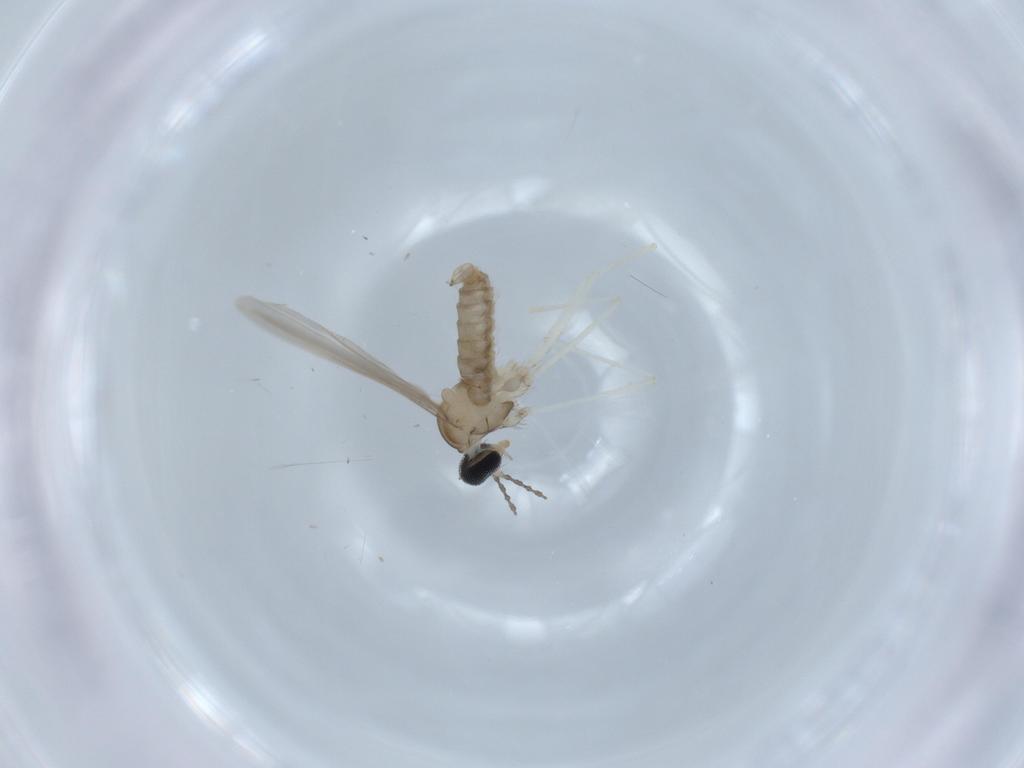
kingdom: Animalia
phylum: Arthropoda
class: Insecta
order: Diptera
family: Cecidomyiidae
